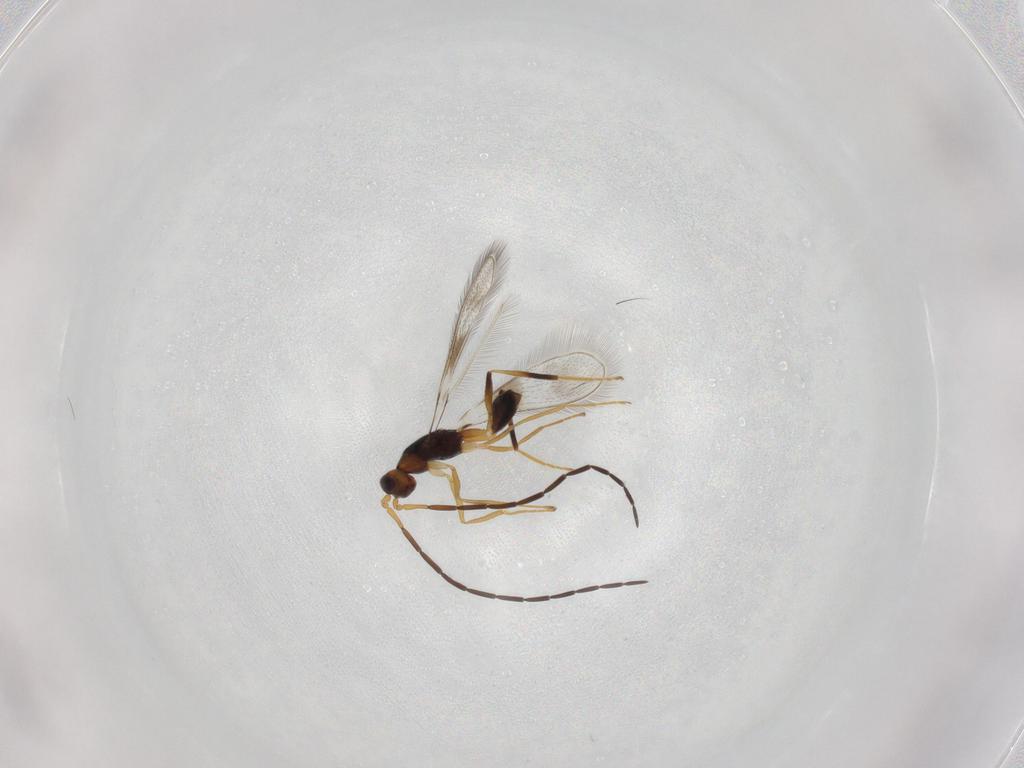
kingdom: Animalia
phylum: Arthropoda
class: Insecta
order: Hymenoptera
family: Mymaridae
